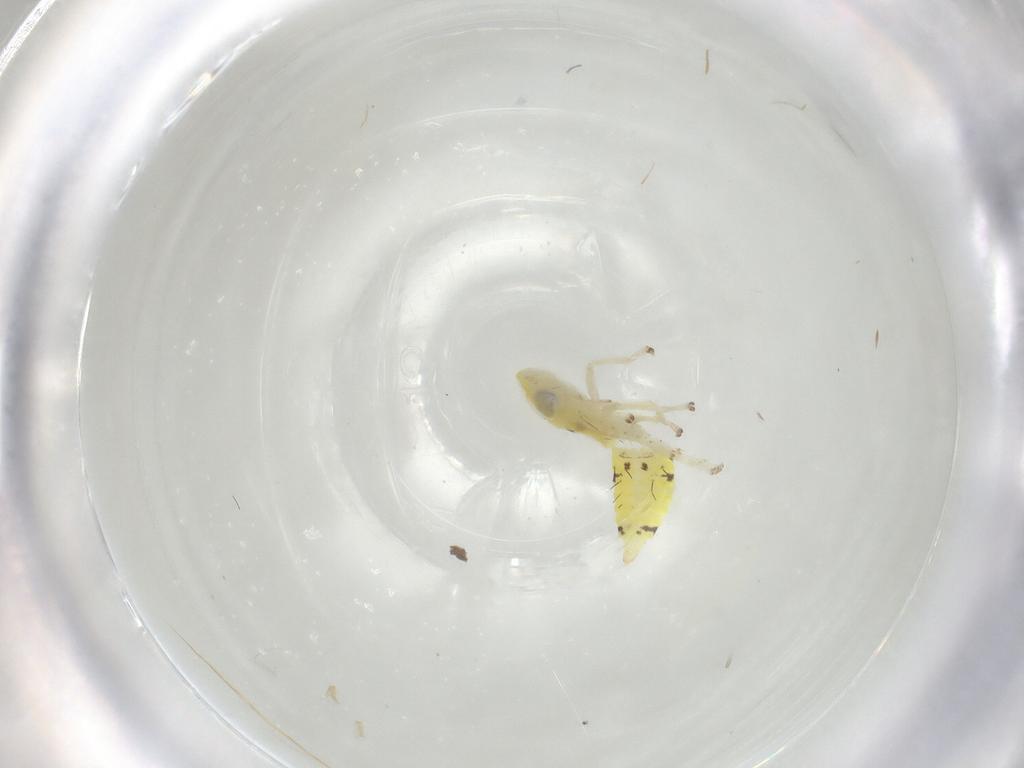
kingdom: Animalia
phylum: Arthropoda
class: Insecta
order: Hemiptera
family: Cicadellidae
